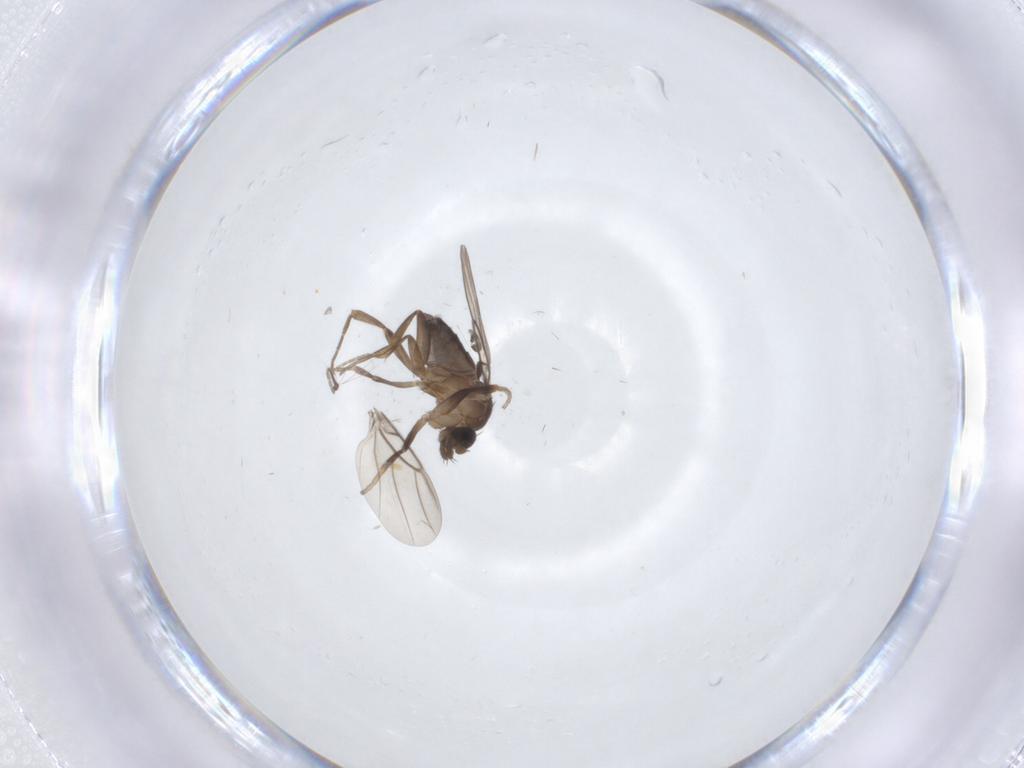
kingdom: Animalia
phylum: Arthropoda
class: Insecta
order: Diptera
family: Phoridae
